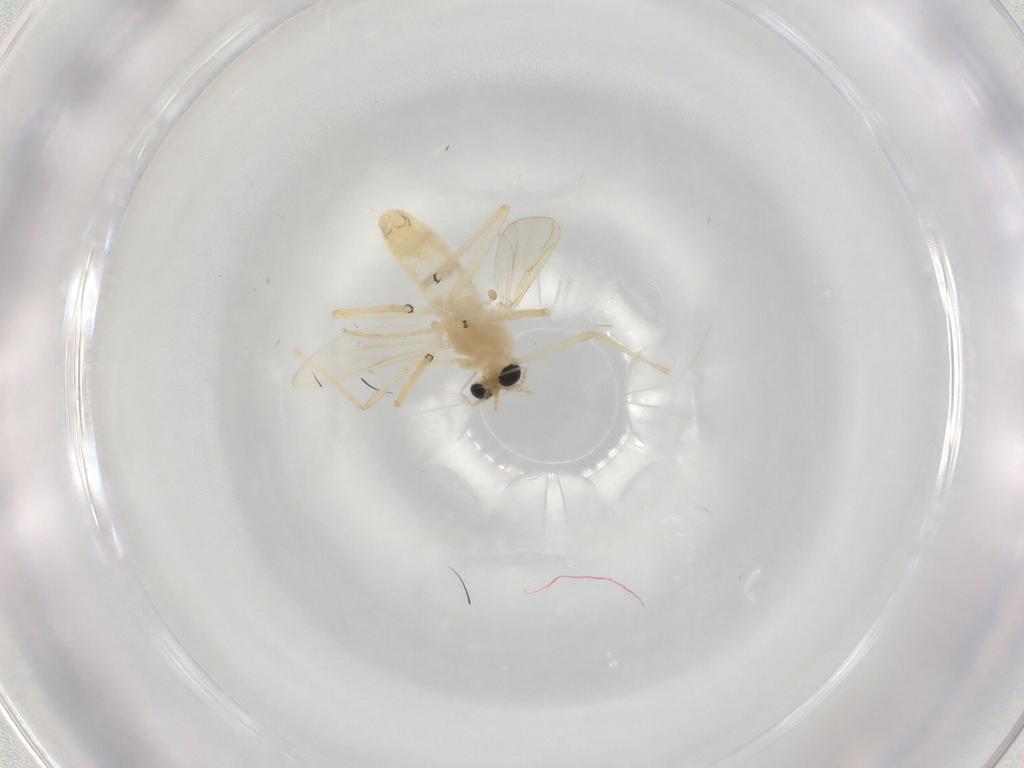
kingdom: Animalia
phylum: Arthropoda
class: Insecta
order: Diptera
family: Chironomidae
